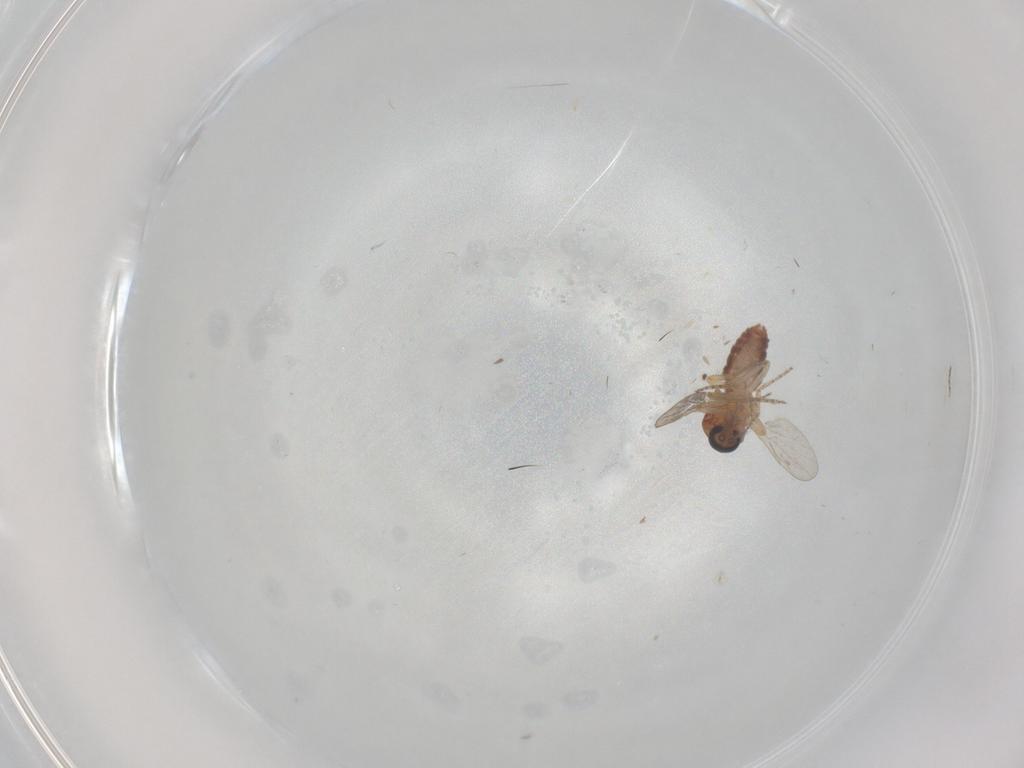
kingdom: Animalia
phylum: Arthropoda
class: Insecta
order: Diptera
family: Ceratopogonidae
